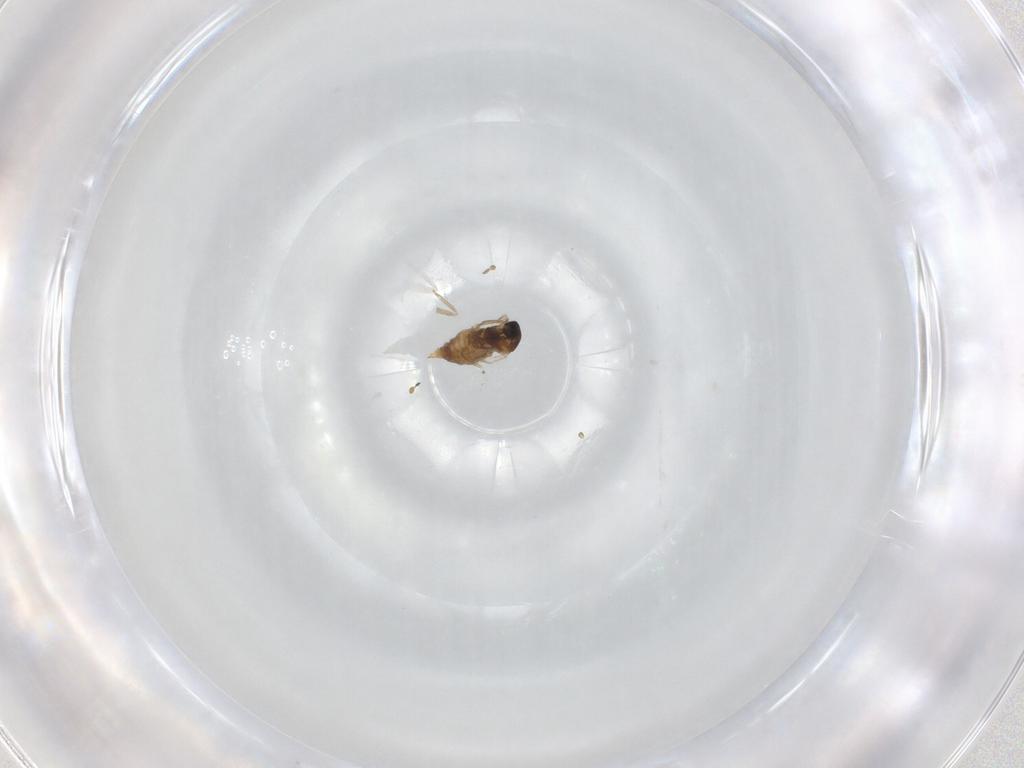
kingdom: Animalia
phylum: Arthropoda
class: Insecta
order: Diptera
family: Cecidomyiidae
